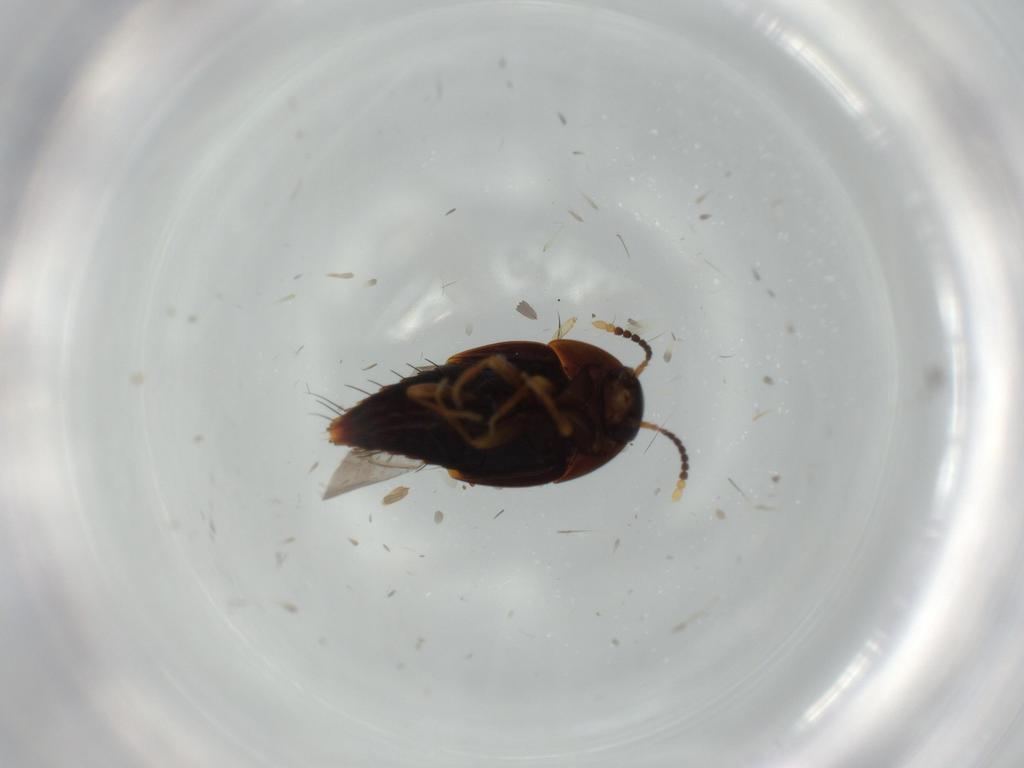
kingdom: Animalia
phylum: Arthropoda
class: Insecta
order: Coleoptera
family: Staphylinidae
